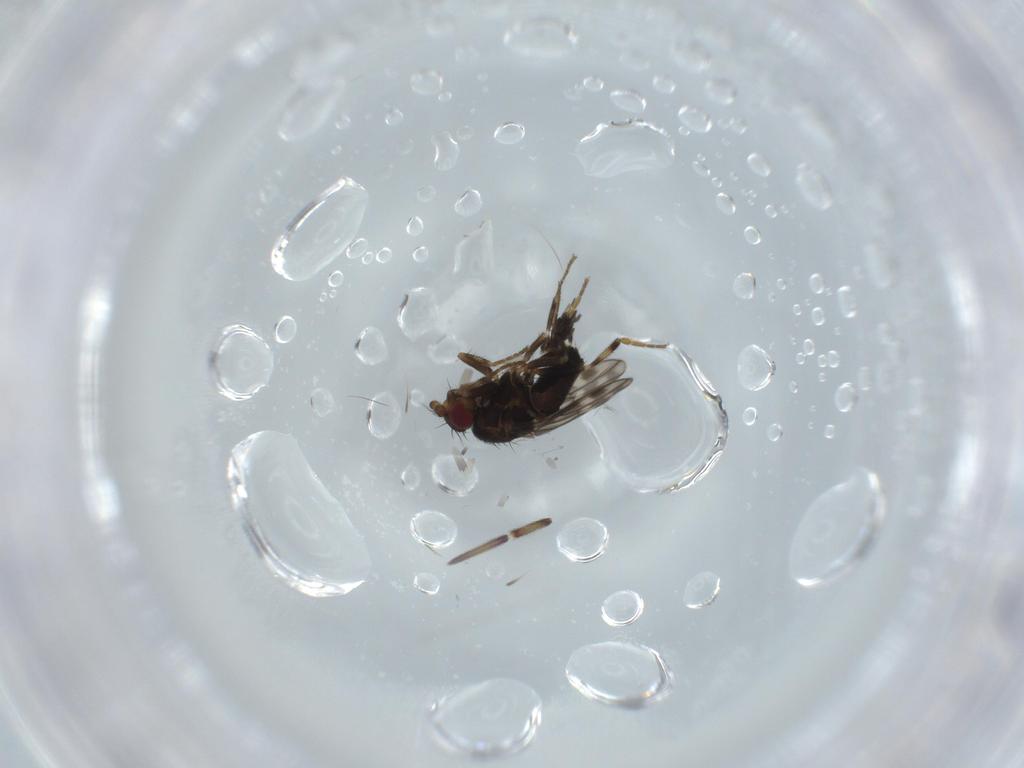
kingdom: Animalia
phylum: Arthropoda
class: Insecta
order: Diptera
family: Sphaeroceridae
